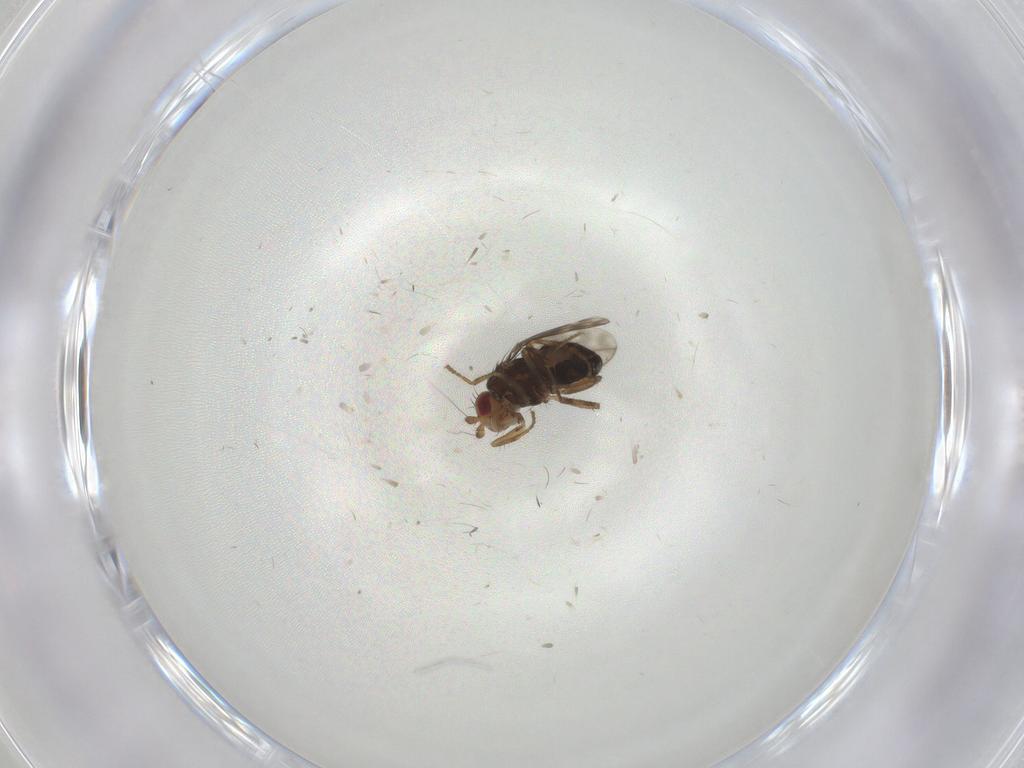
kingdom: Animalia
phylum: Arthropoda
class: Insecta
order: Diptera
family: Sphaeroceridae
